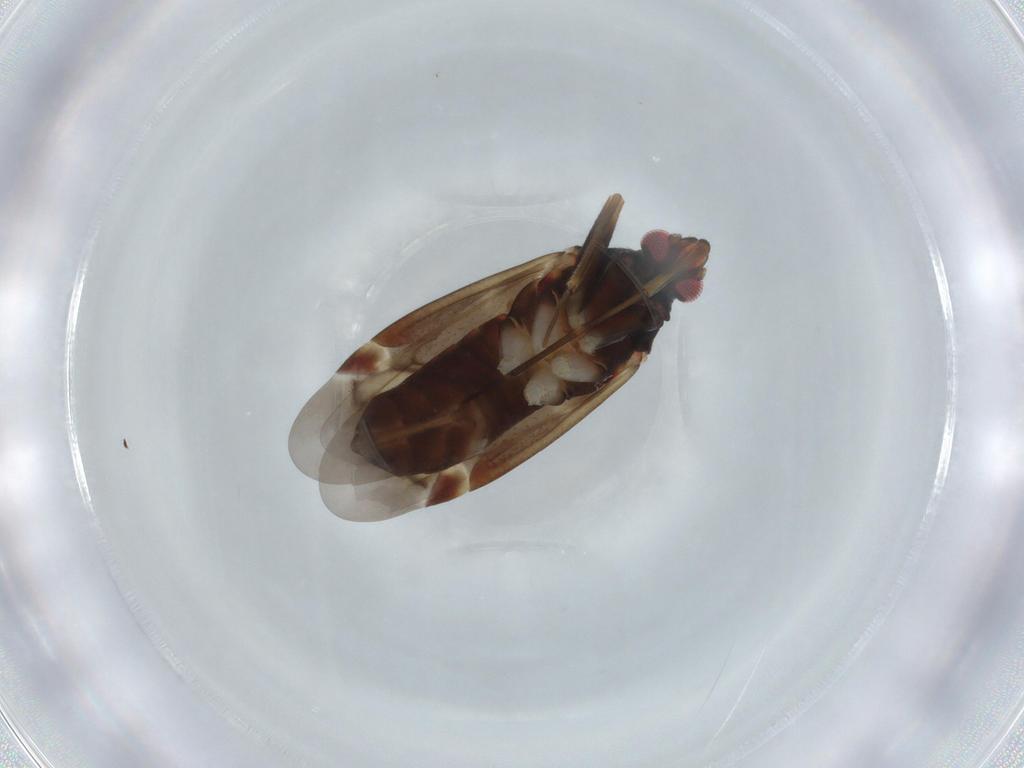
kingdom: Animalia
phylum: Arthropoda
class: Insecta
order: Hemiptera
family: Miridae
